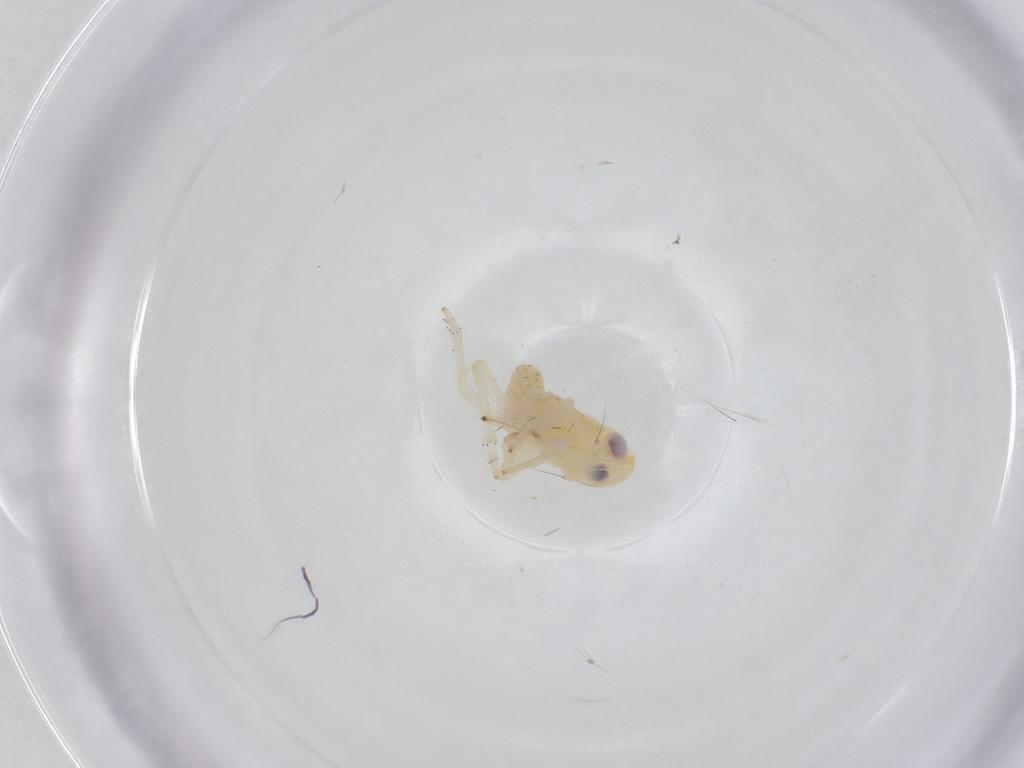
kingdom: Animalia
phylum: Arthropoda
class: Insecta
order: Hemiptera
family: Tropiduchidae
